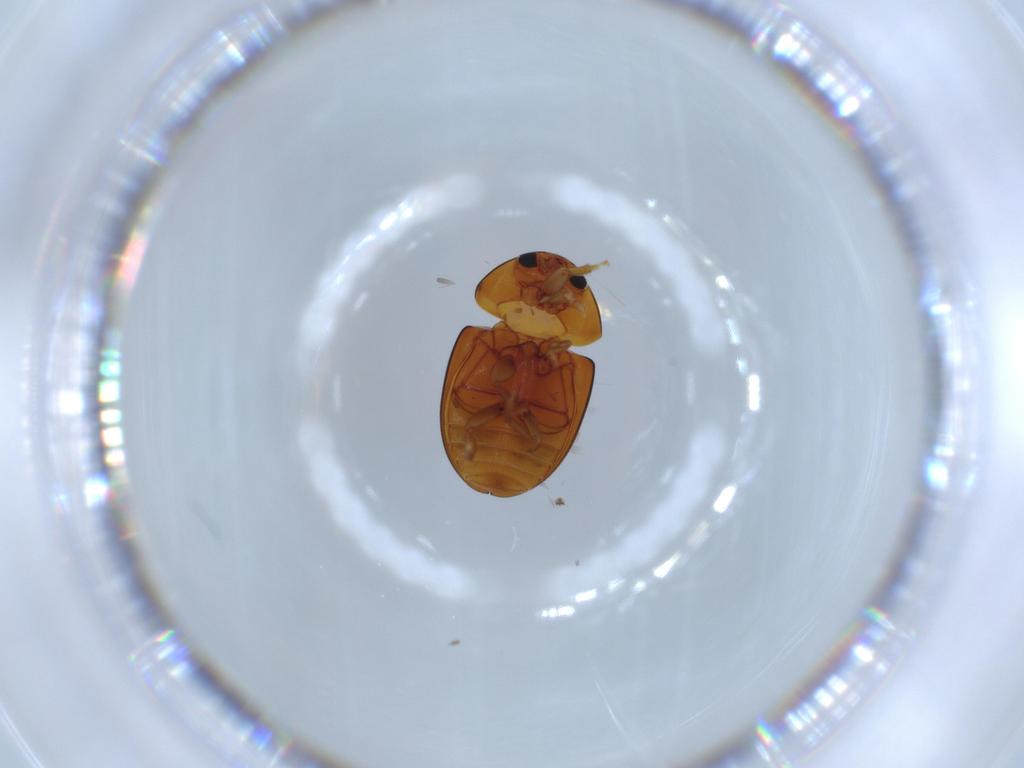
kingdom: Animalia
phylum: Arthropoda
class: Insecta
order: Coleoptera
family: Phalacridae
